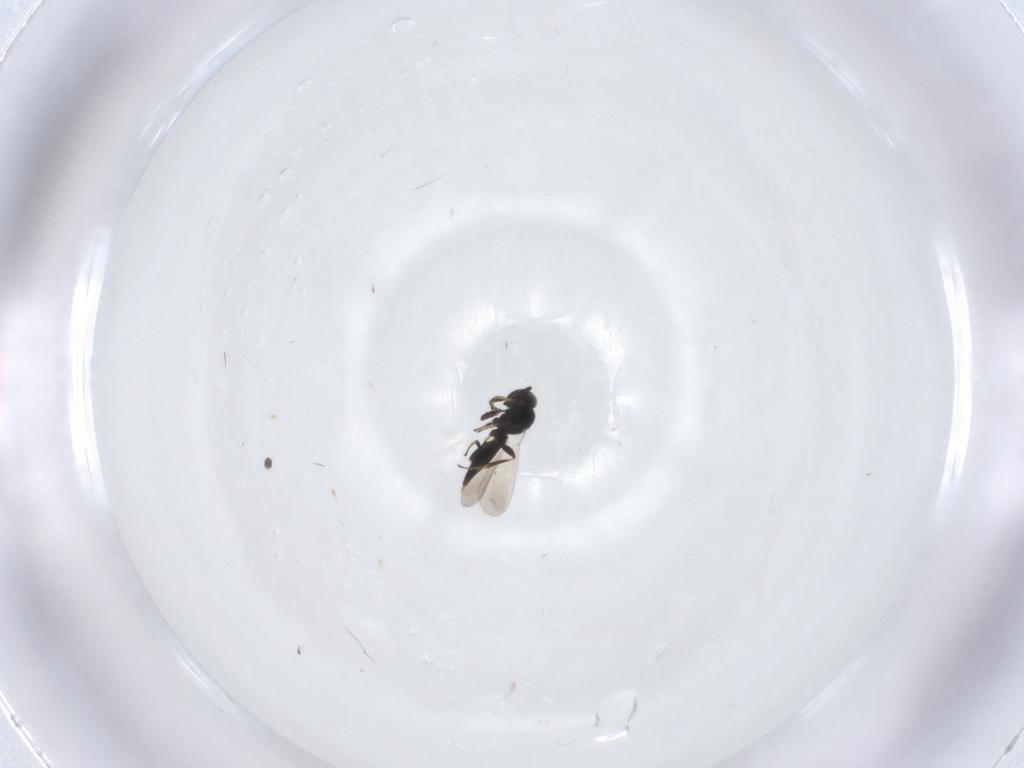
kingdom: Animalia
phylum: Arthropoda
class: Insecta
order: Hymenoptera
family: Platygastridae
